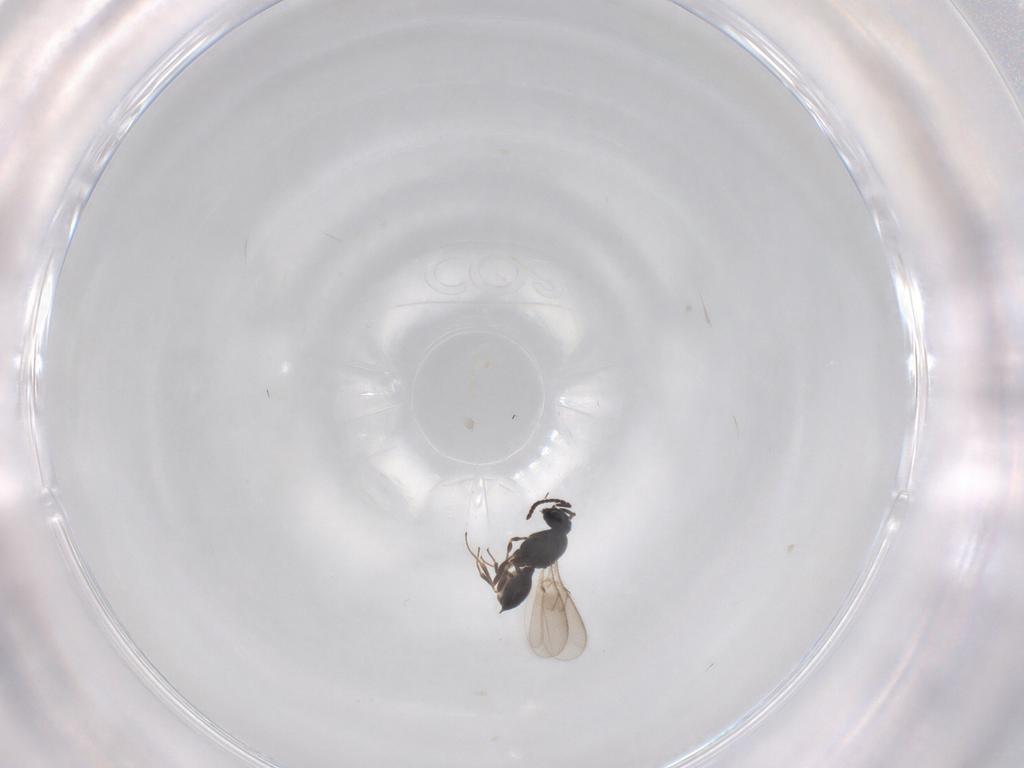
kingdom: Animalia
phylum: Arthropoda
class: Insecta
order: Hymenoptera
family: Scelionidae
